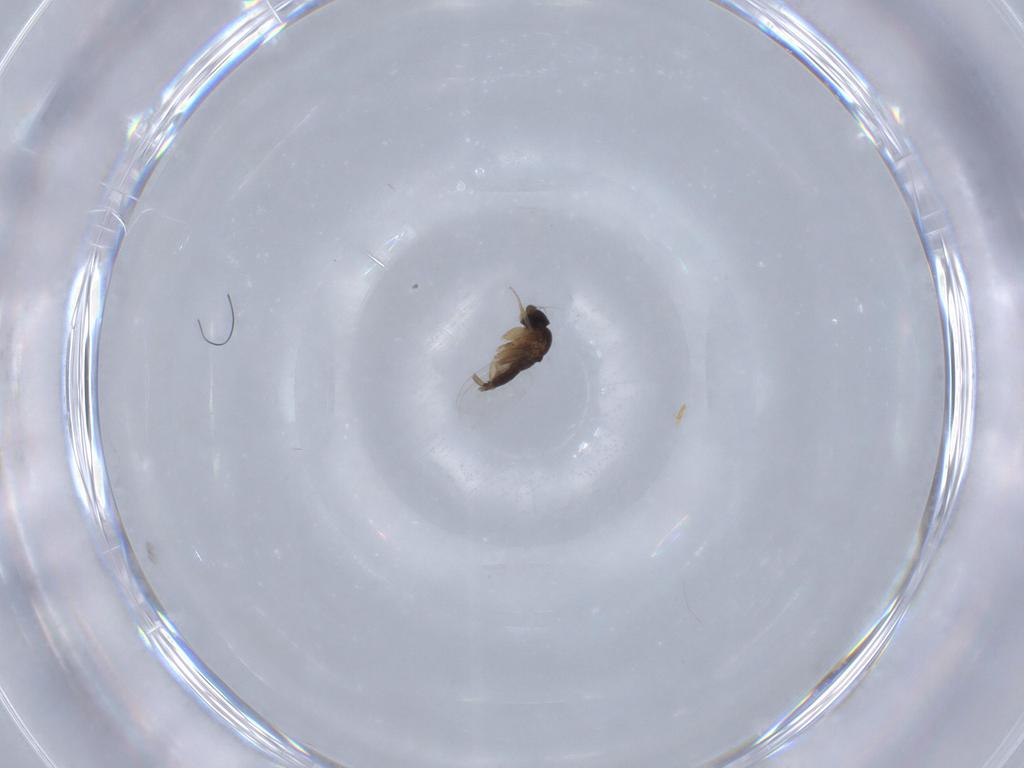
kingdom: Animalia
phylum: Arthropoda
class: Insecta
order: Diptera
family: Phoridae
